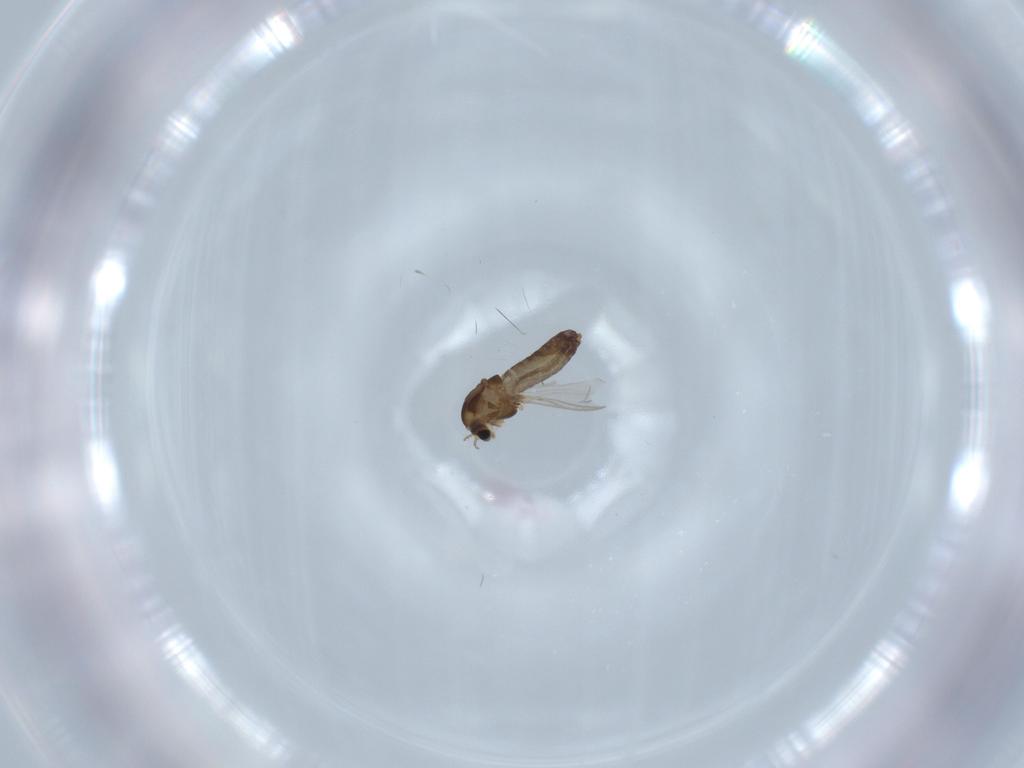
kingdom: Animalia
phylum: Arthropoda
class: Insecta
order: Diptera
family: Chironomidae
